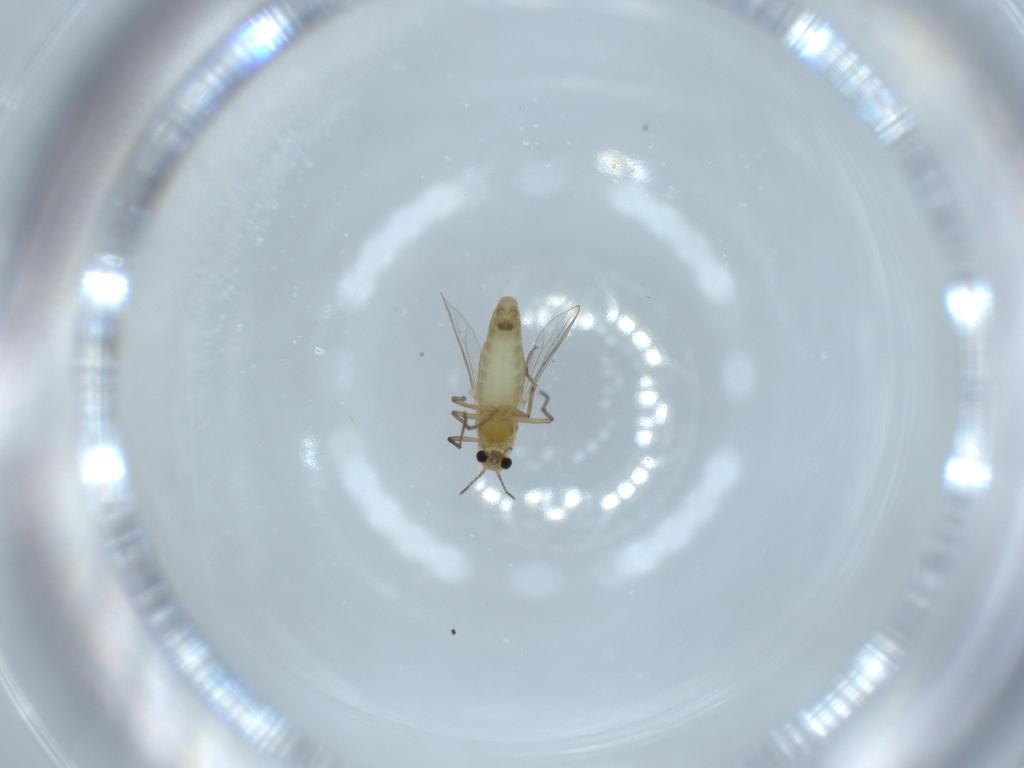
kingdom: Animalia
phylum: Arthropoda
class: Insecta
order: Diptera
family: Chironomidae
